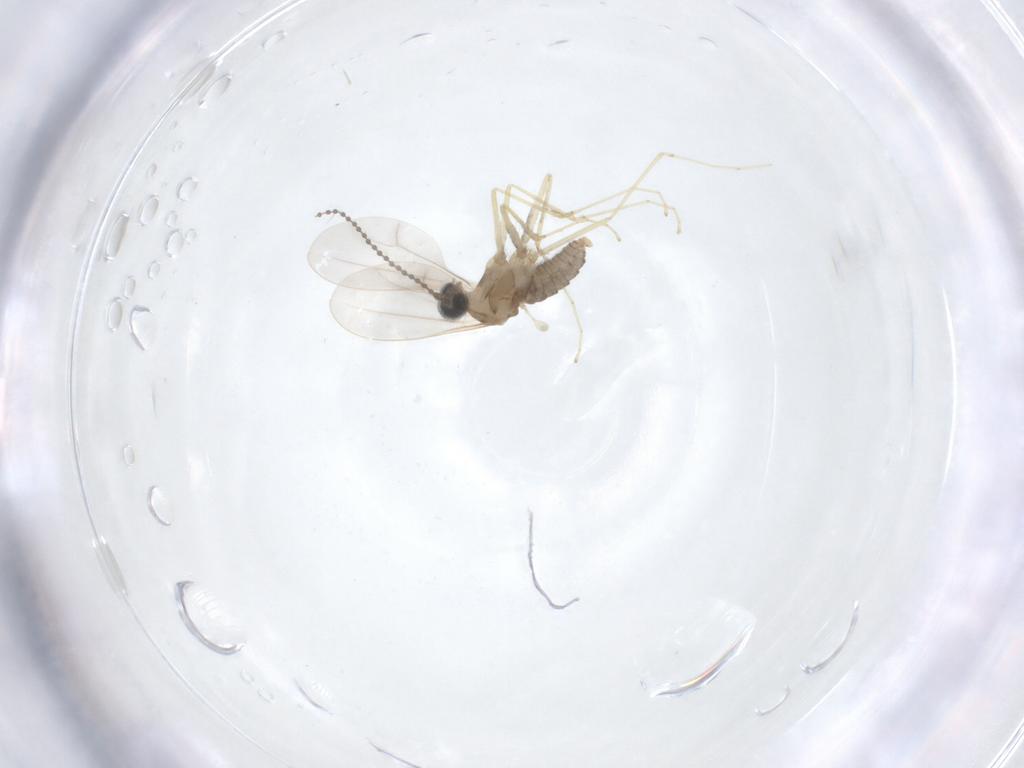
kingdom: Animalia
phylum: Arthropoda
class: Insecta
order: Diptera
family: Cecidomyiidae
